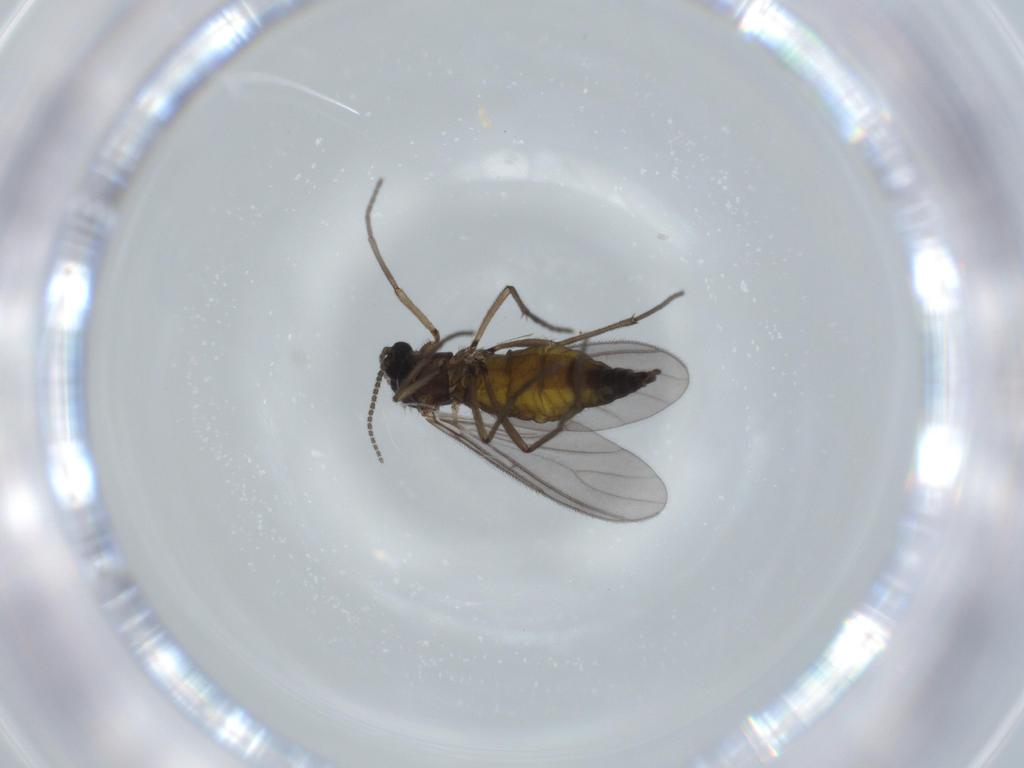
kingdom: Animalia
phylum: Arthropoda
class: Insecta
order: Diptera
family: Sciaridae
